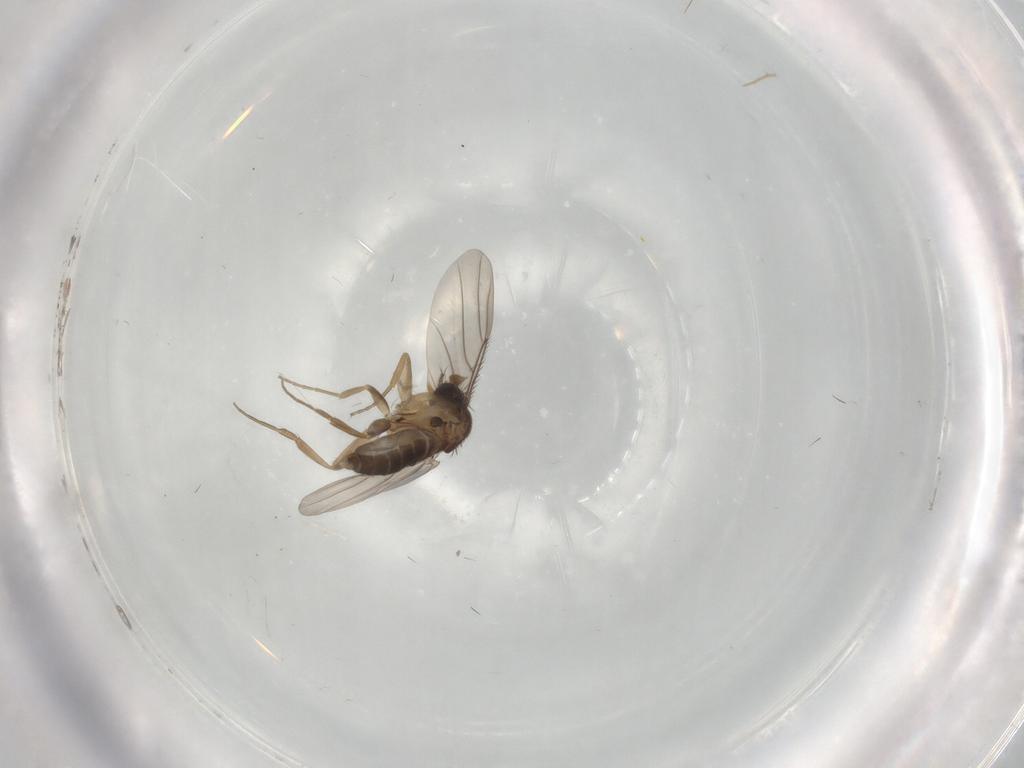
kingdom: Animalia
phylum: Arthropoda
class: Insecta
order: Diptera
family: Phoridae
